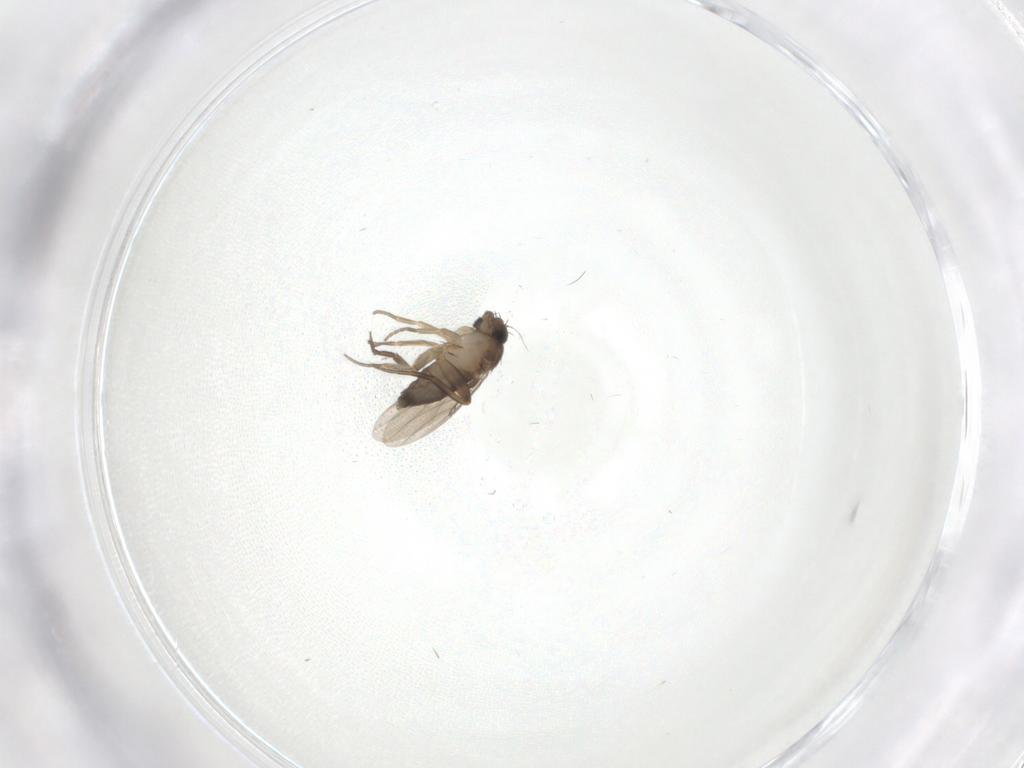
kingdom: Animalia
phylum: Arthropoda
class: Insecta
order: Diptera
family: Phoridae
